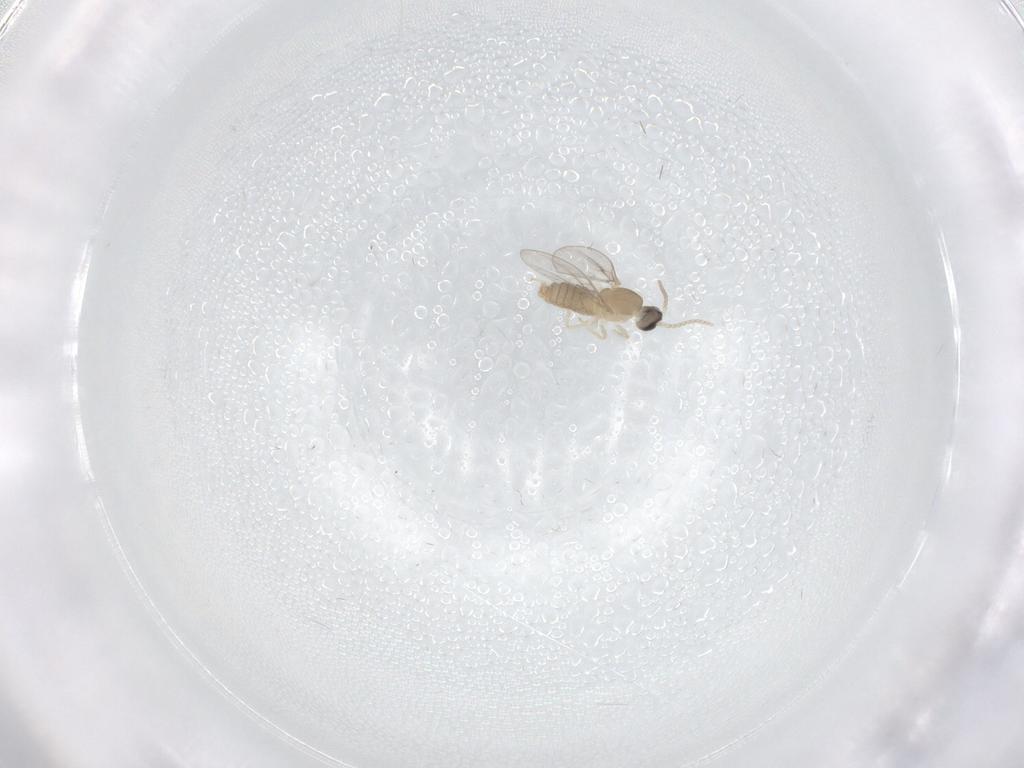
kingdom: Animalia
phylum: Arthropoda
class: Insecta
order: Diptera
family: Cecidomyiidae
